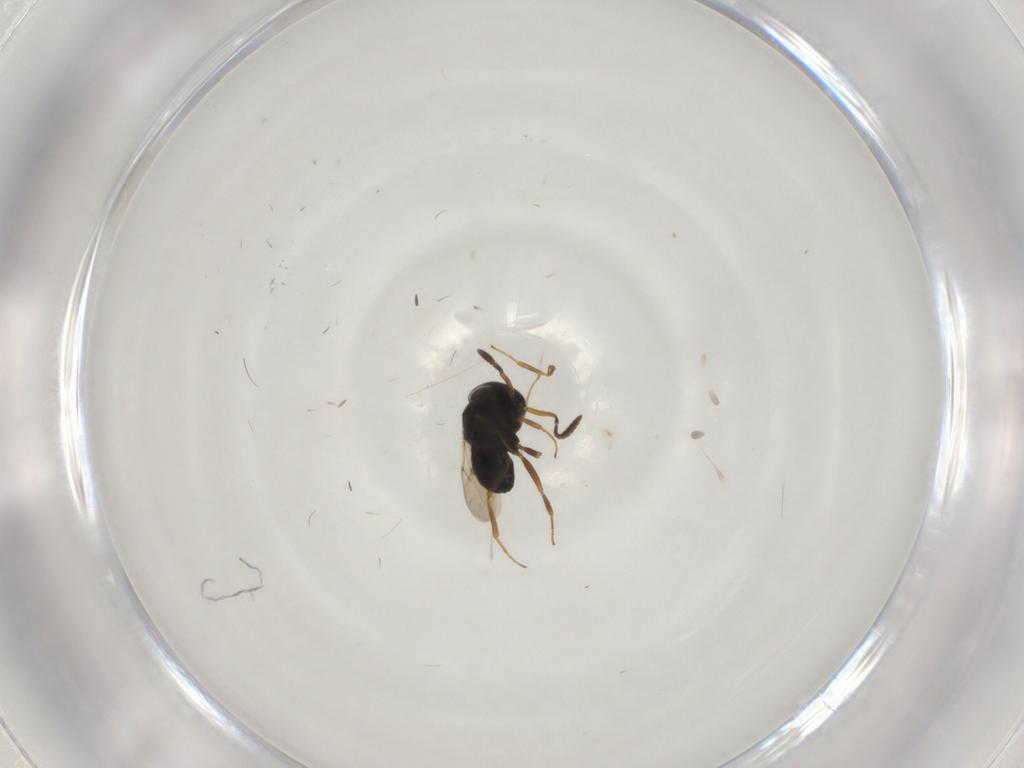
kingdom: Animalia
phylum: Arthropoda
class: Insecta
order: Hymenoptera
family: Scelionidae
